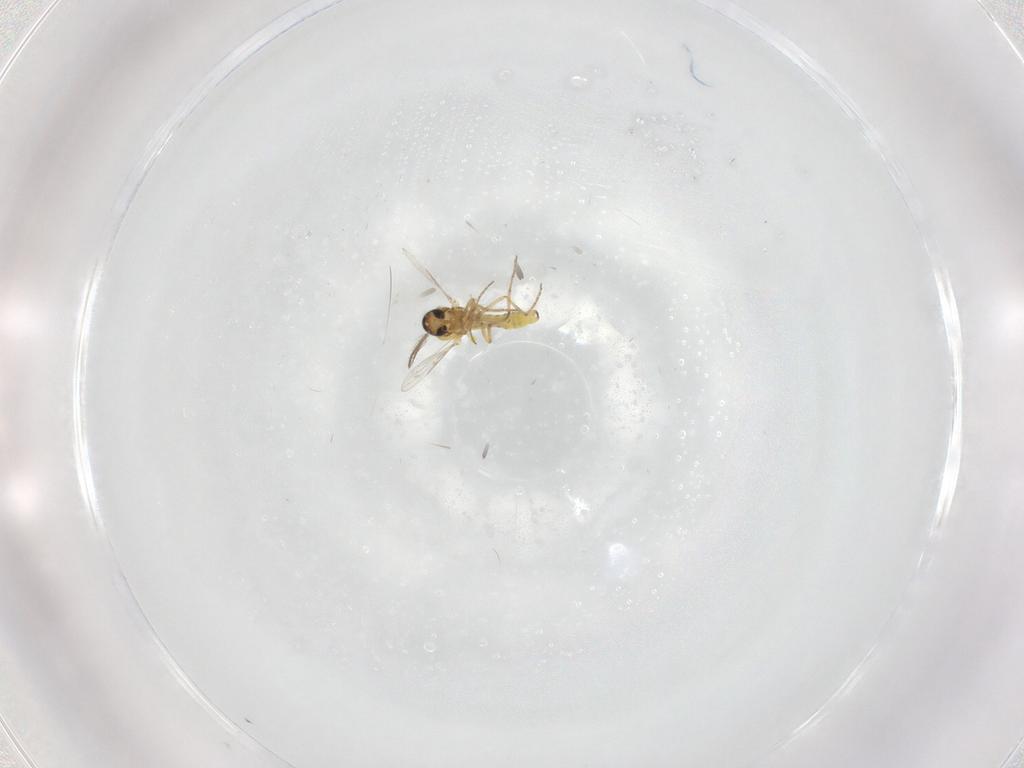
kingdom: Animalia
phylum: Arthropoda
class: Insecta
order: Diptera
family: Ceratopogonidae
